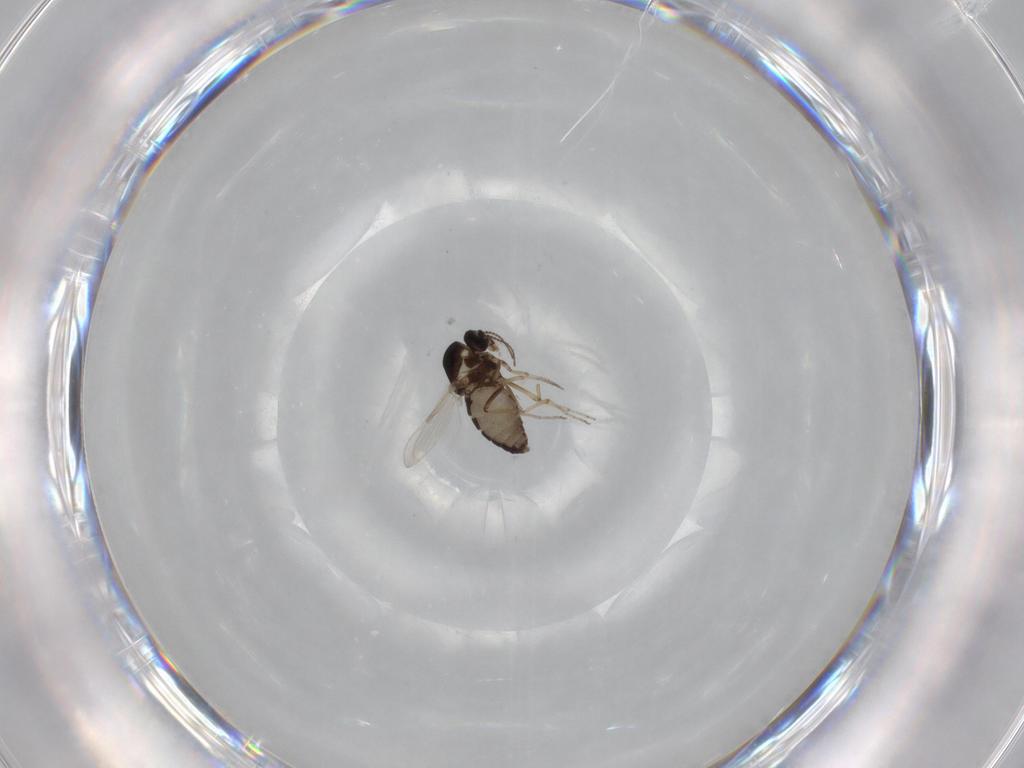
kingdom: Animalia
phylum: Arthropoda
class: Insecta
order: Diptera
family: Ceratopogonidae
